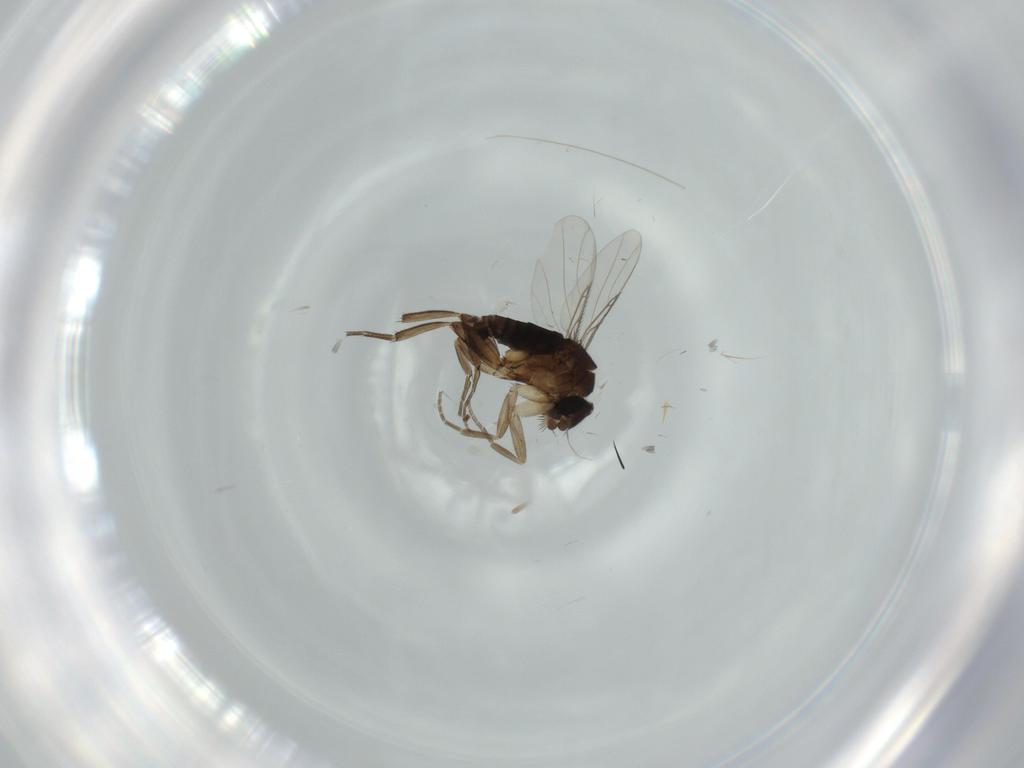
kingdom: Animalia
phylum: Arthropoda
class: Insecta
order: Diptera
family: Phoridae
